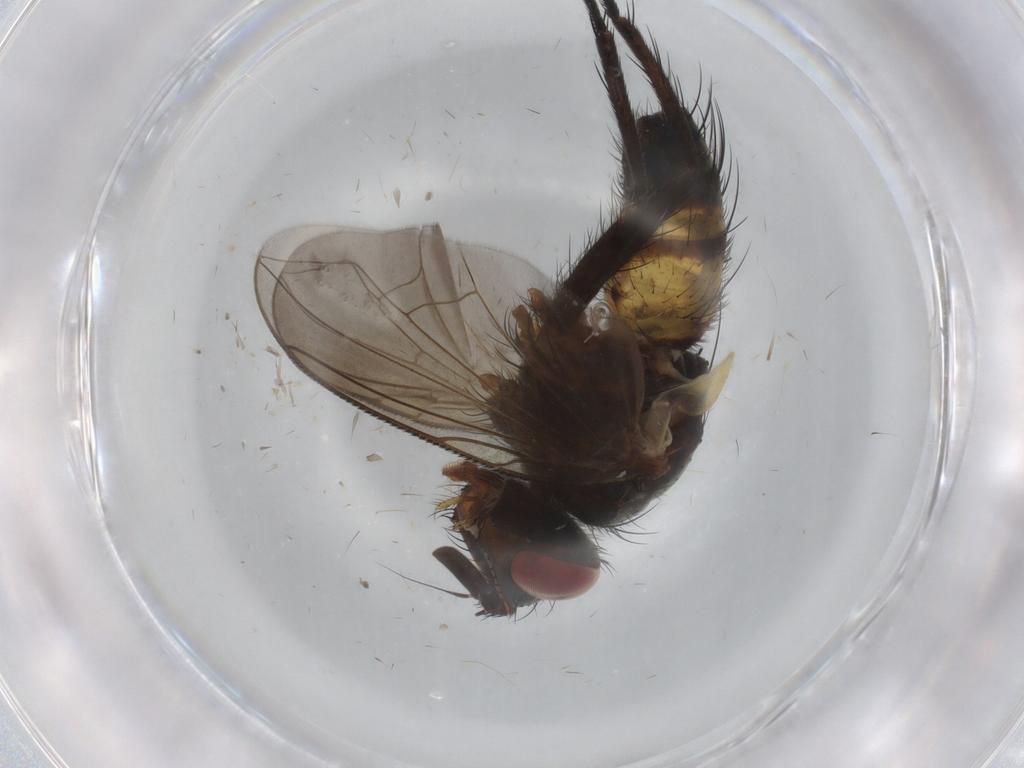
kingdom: Animalia
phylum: Arthropoda
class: Insecta
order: Diptera
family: Tachinidae
